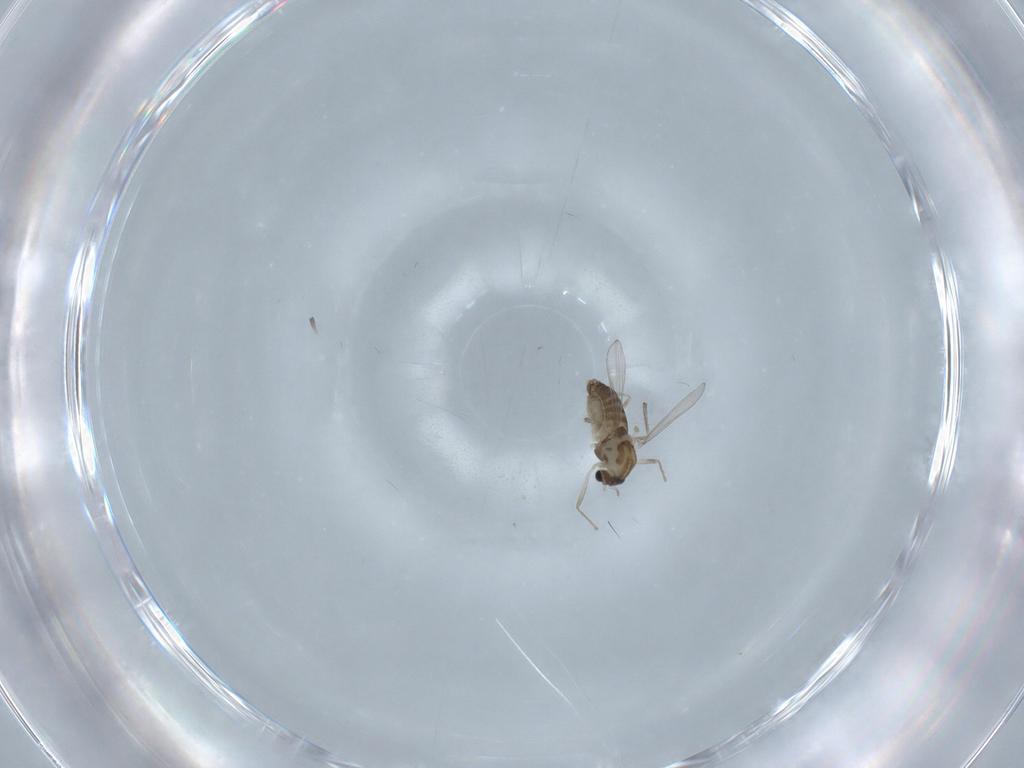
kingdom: Animalia
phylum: Arthropoda
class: Insecta
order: Diptera
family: Chironomidae
